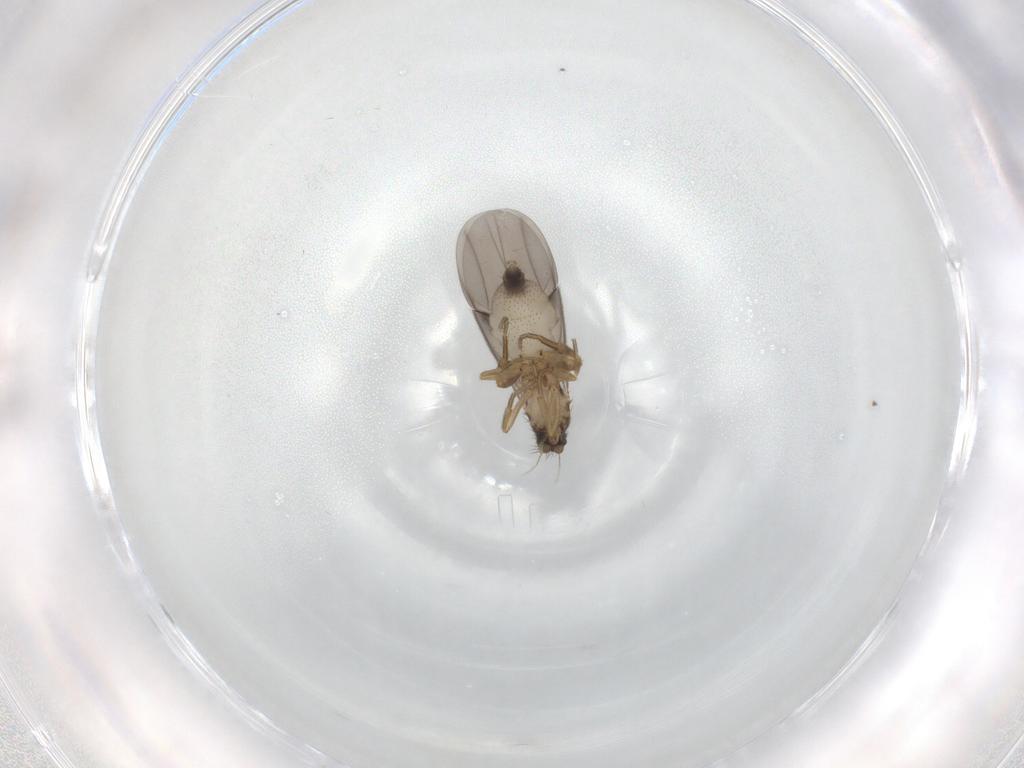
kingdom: Animalia
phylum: Arthropoda
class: Insecta
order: Diptera
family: Phoridae
